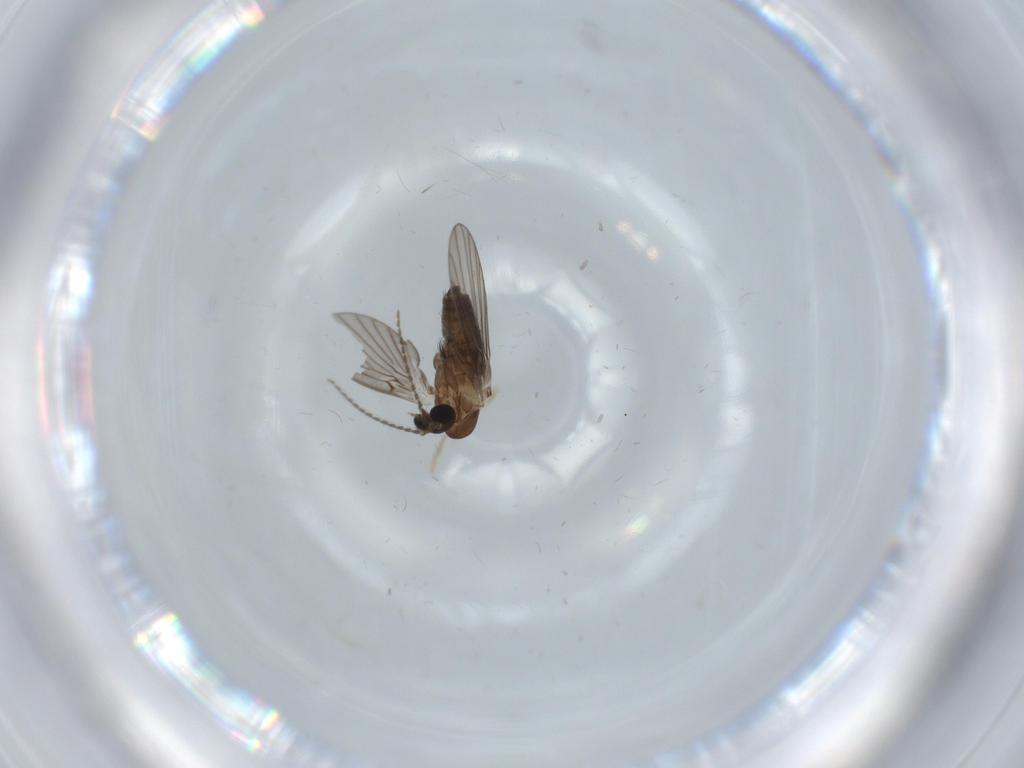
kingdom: Animalia
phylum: Arthropoda
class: Insecta
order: Diptera
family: Psychodidae
